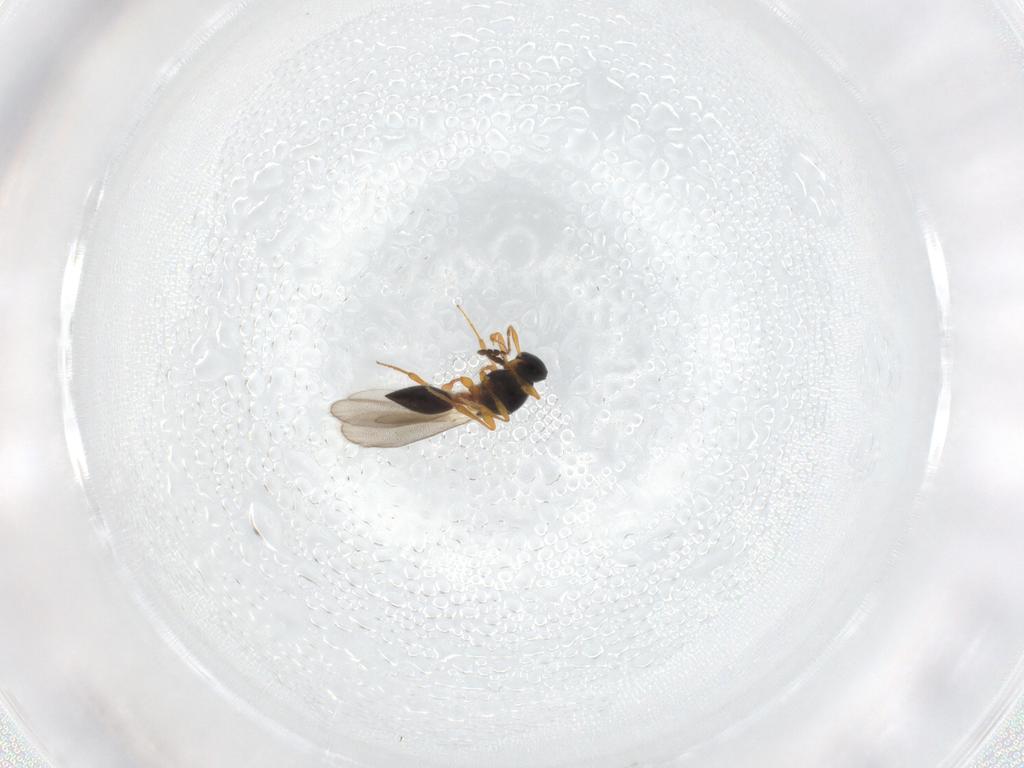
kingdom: Animalia
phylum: Arthropoda
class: Insecta
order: Hymenoptera
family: Platygastridae
